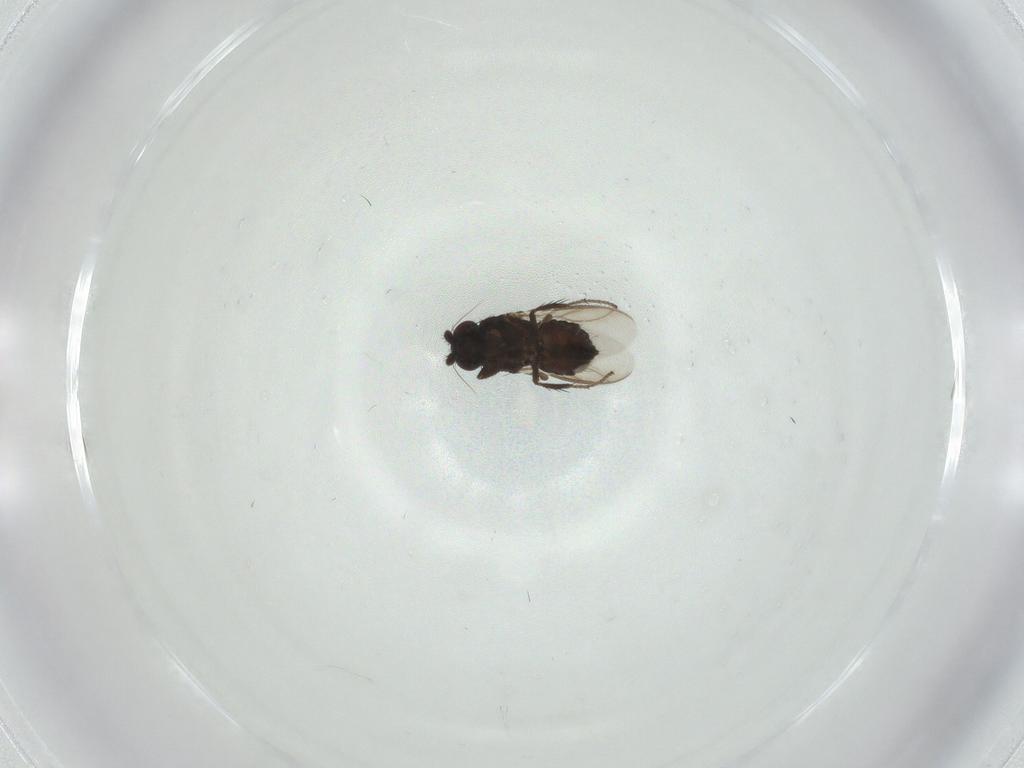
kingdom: Animalia
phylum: Arthropoda
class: Insecta
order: Diptera
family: Sphaeroceridae
